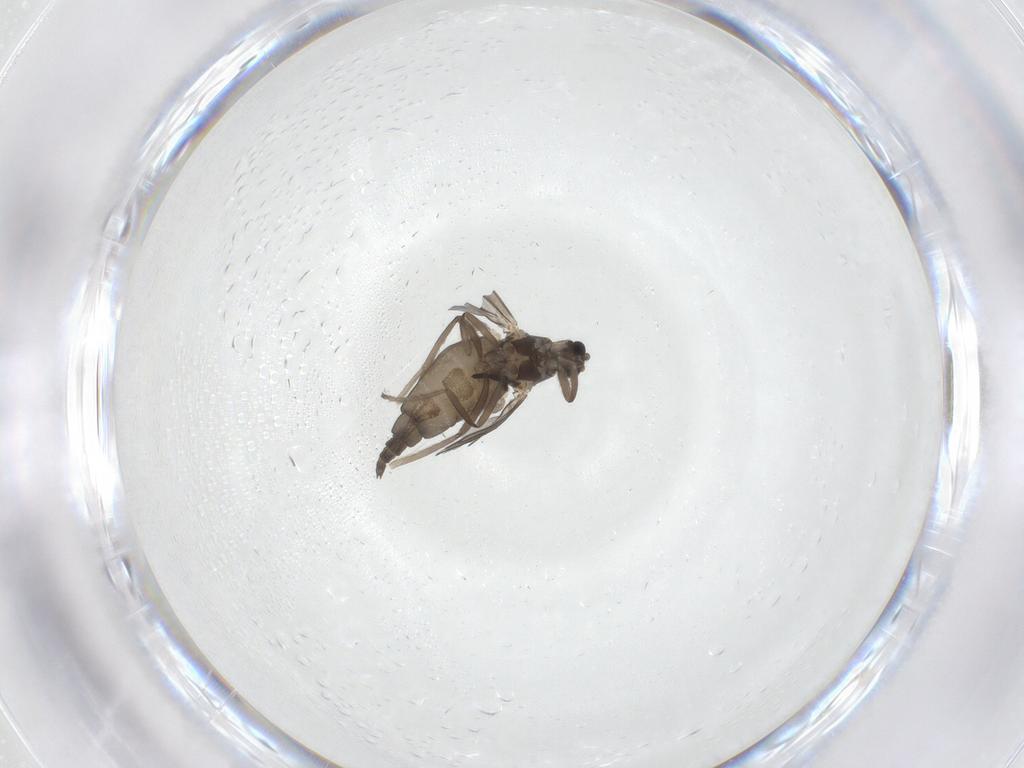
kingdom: Animalia
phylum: Arthropoda
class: Insecta
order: Diptera
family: Cecidomyiidae
